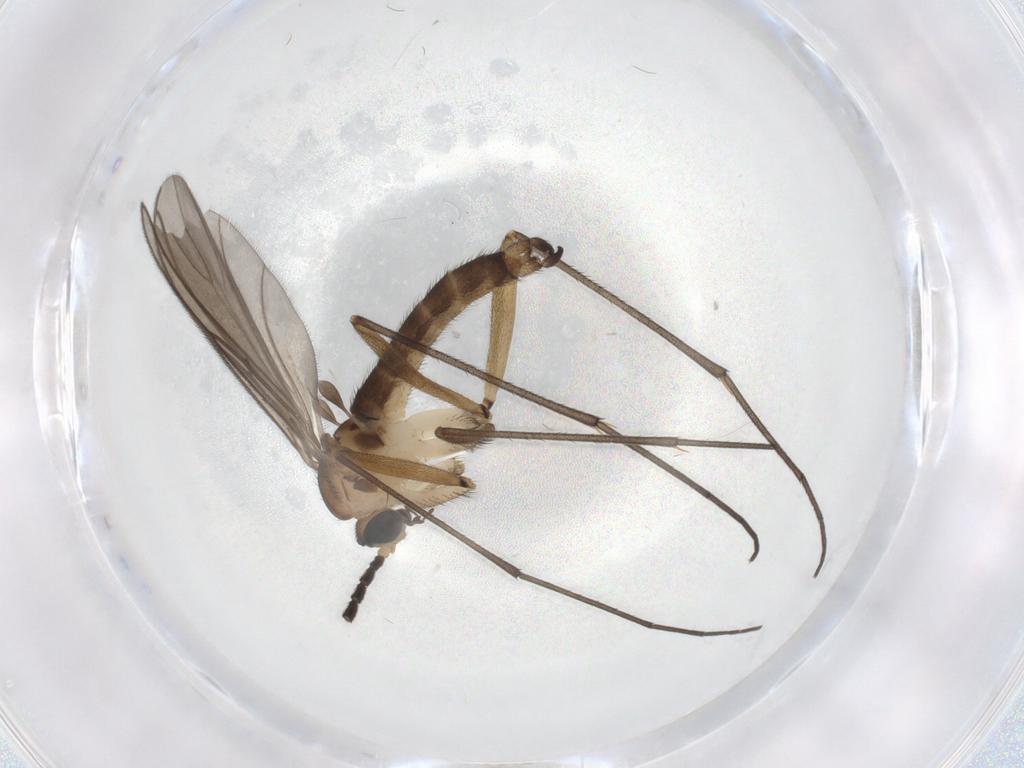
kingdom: Animalia
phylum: Arthropoda
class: Insecta
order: Diptera
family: Sciaridae
